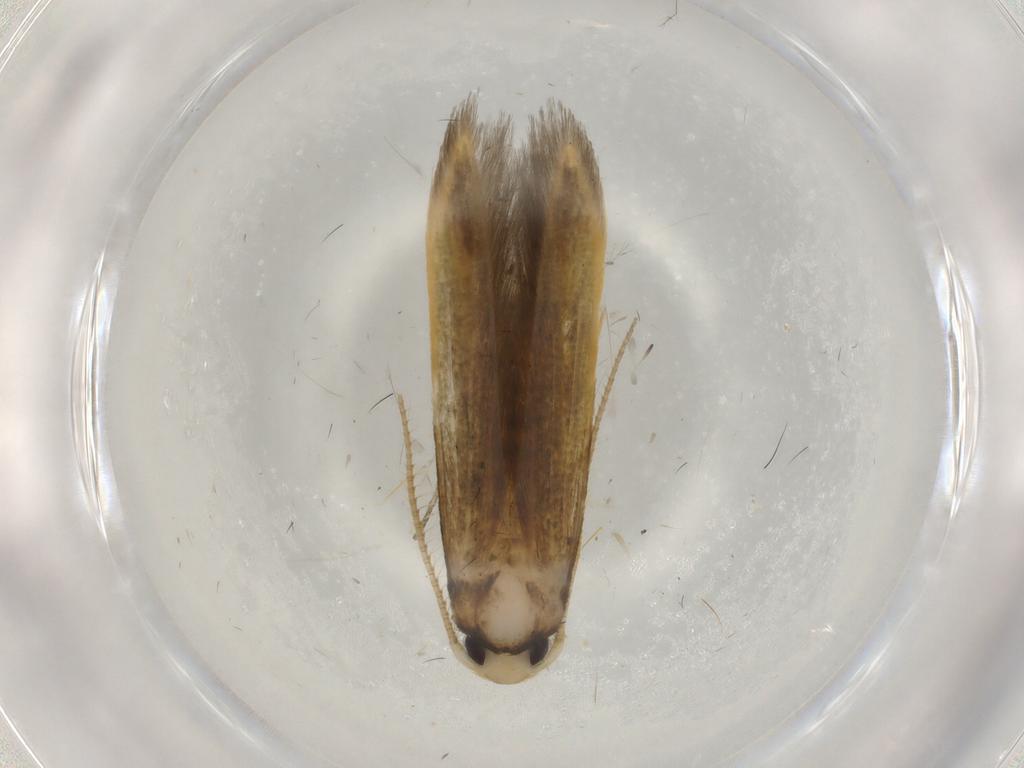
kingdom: Animalia
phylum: Arthropoda
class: Insecta
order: Lepidoptera
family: Stathmopodidae
